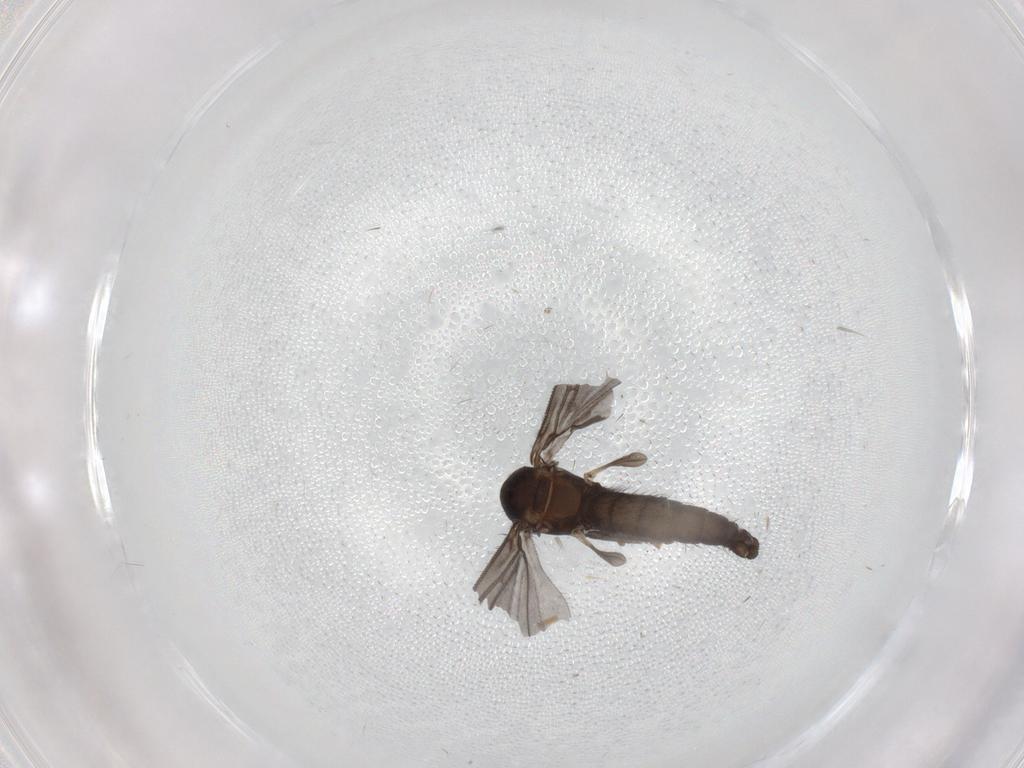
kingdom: Animalia
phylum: Arthropoda
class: Insecta
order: Diptera
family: Sciaridae
